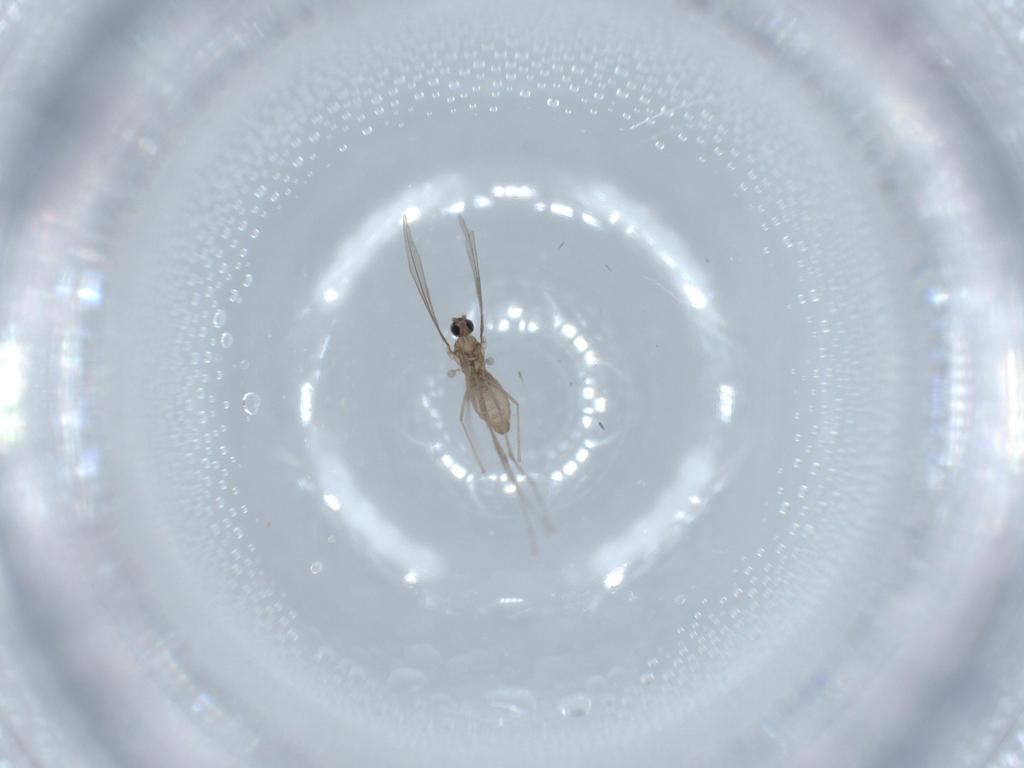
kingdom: Animalia
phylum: Arthropoda
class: Insecta
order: Diptera
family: Cecidomyiidae
